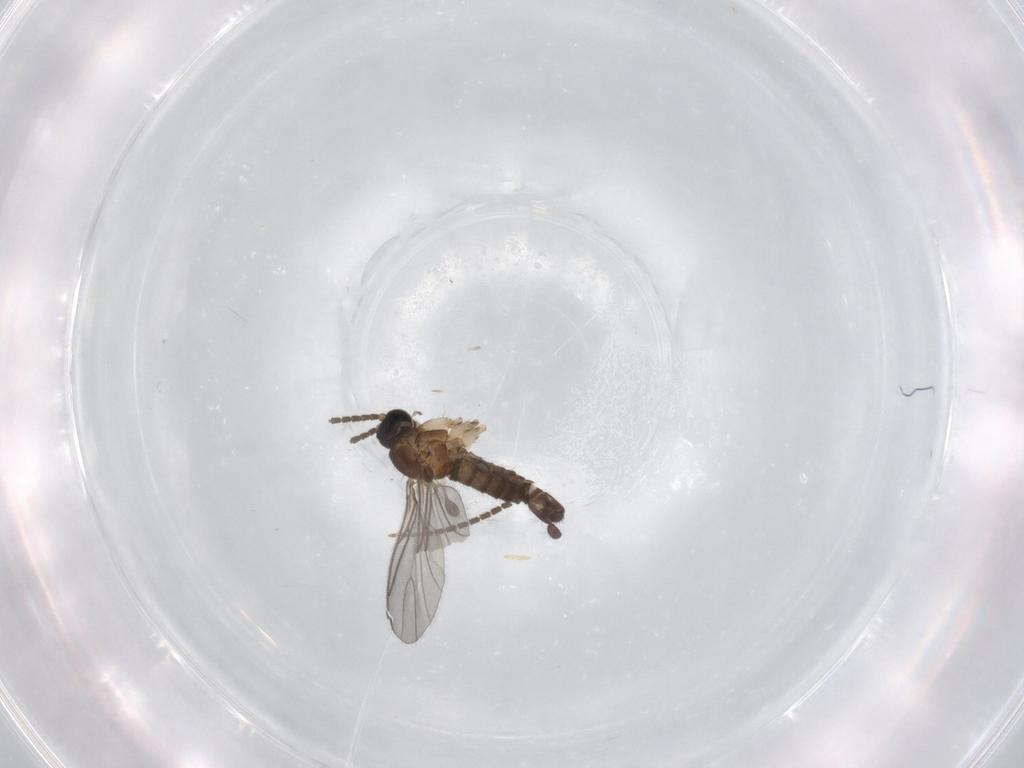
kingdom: Animalia
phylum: Arthropoda
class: Insecta
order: Diptera
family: Sciaridae
